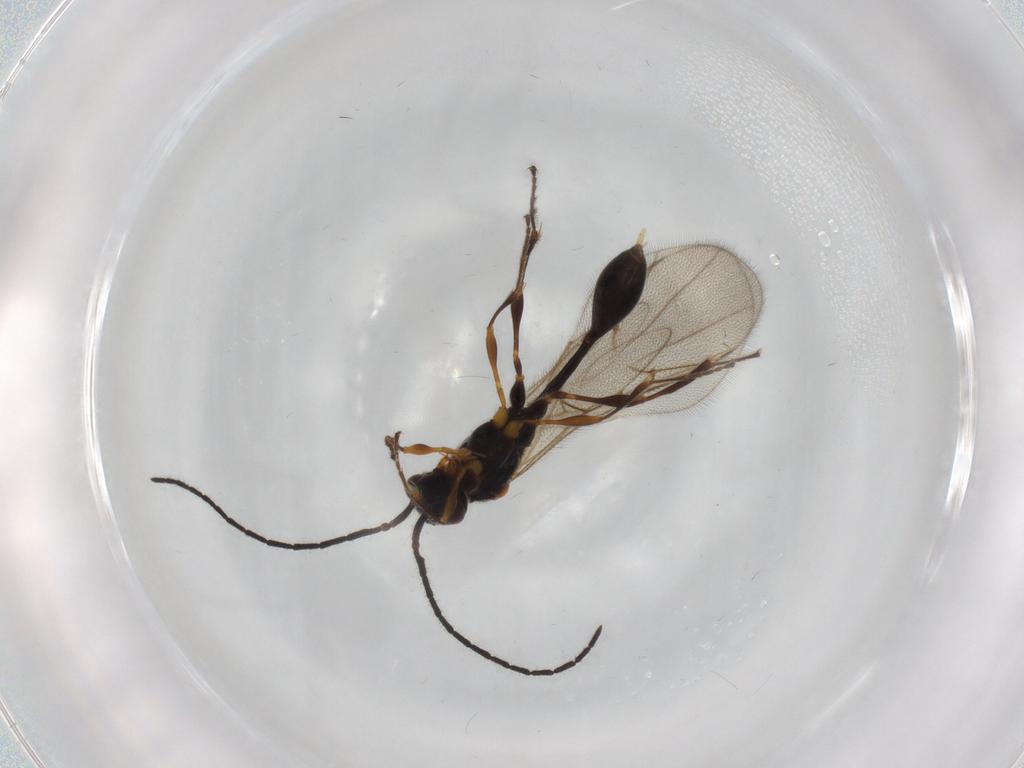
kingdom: Animalia
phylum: Arthropoda
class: Insecta
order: Hymenoptera
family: Diapriidae
